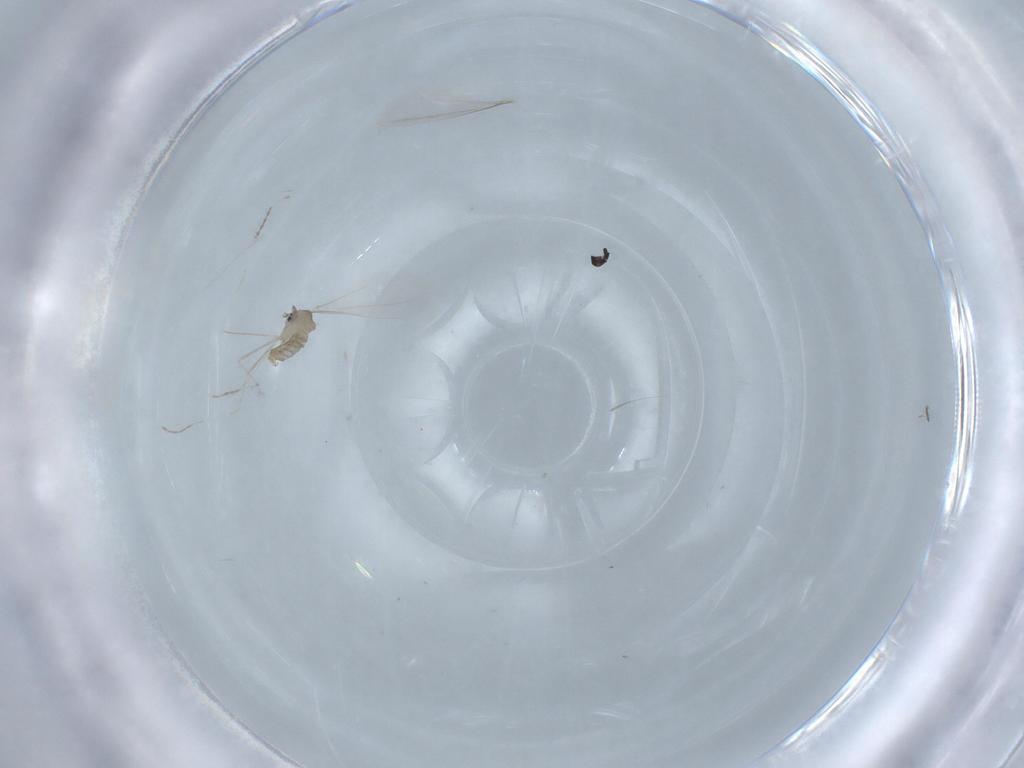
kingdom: Animalia
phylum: Arthropoda
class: Insecta
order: Diptera
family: Cecidomyiidae
